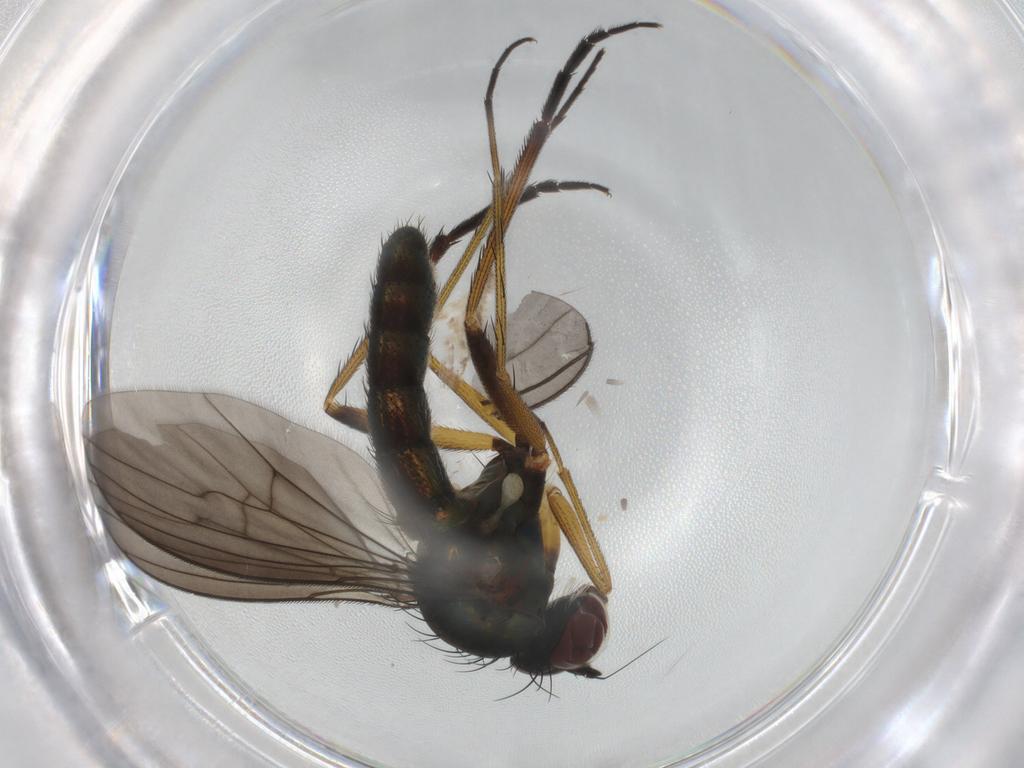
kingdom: Animalia
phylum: Arthropoda
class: Insecta
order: Diptera
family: Dolichopodidae
